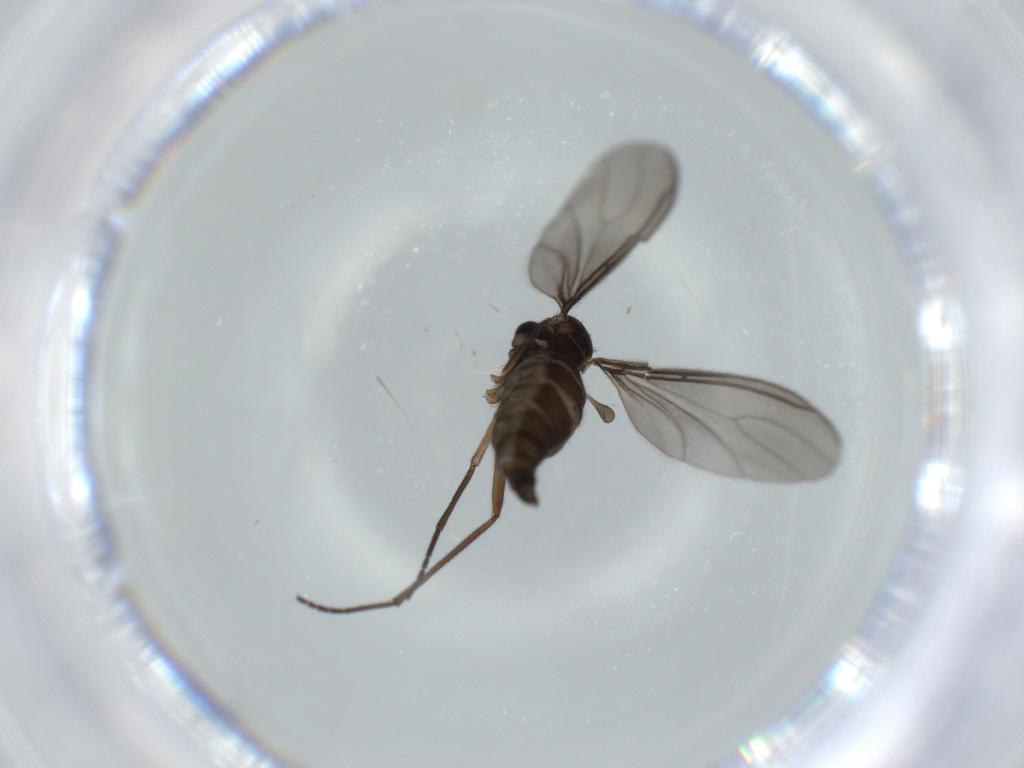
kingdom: Animalia
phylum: Arthropoda
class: Insecta
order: Diptera
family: Sciaridae
